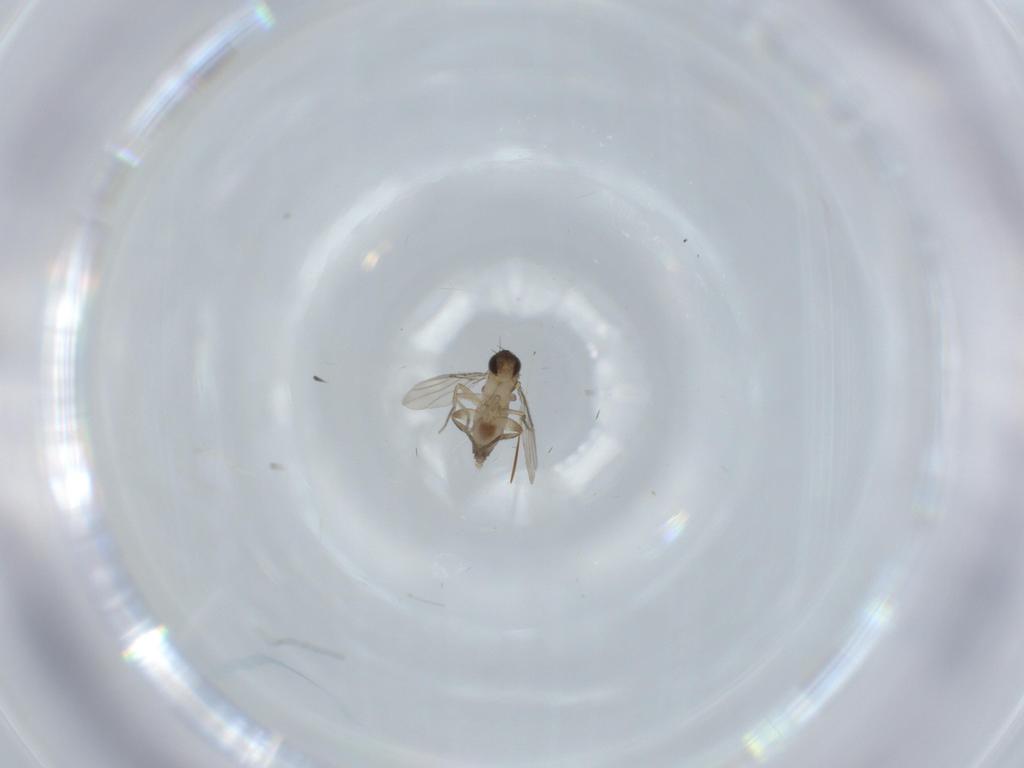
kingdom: Animalia
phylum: Arthropoda
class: Insecta
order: Diptera
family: Phoridae
